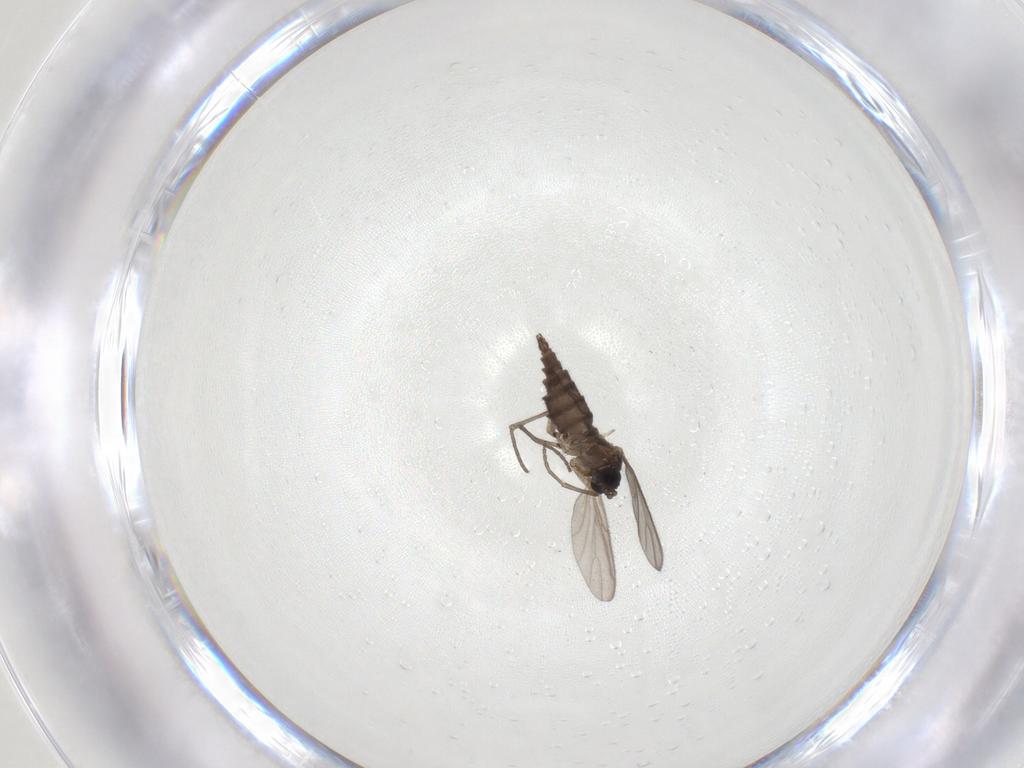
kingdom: Animalia
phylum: Arthropoda
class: Insecta
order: Diptera
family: Sciaridae
